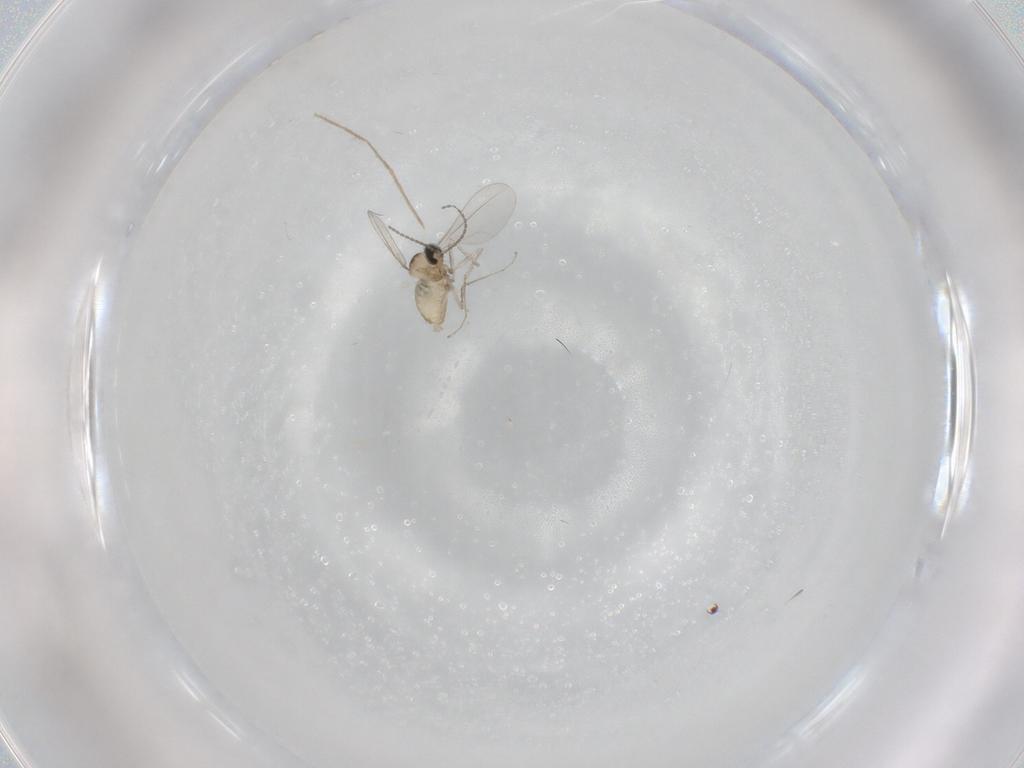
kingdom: Animalia
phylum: Arthropoda
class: Insecta
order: Diptera
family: Cecidomyiidae
